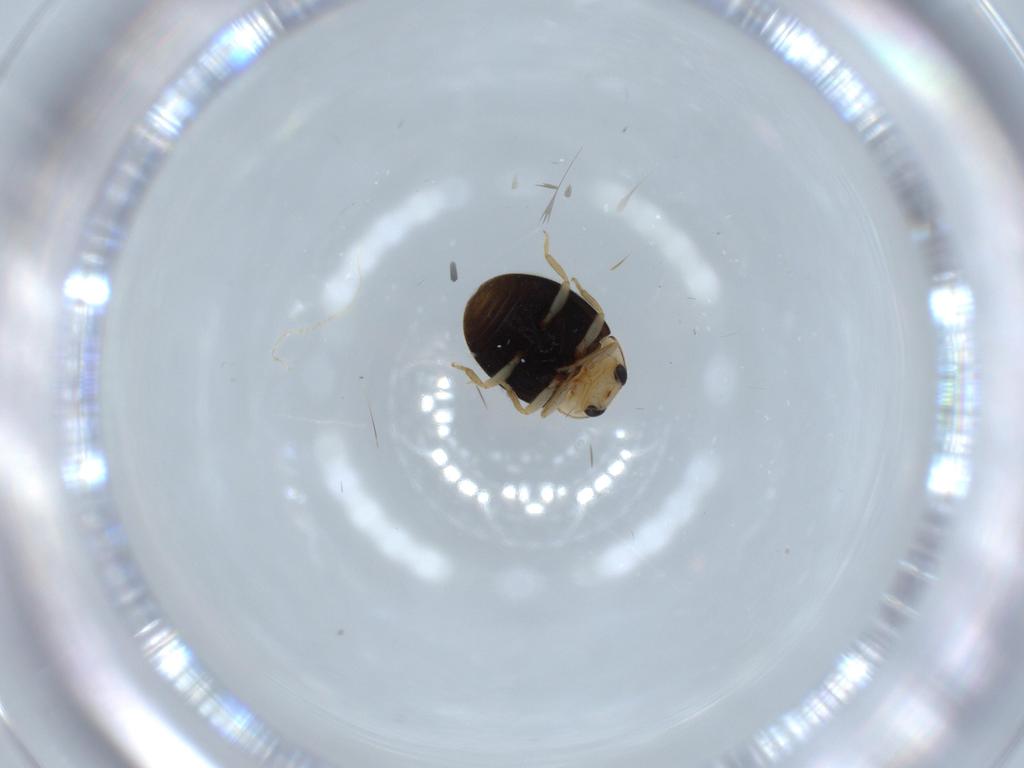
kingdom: Animalia
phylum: Arthropoda
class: Insecta
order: Coleoptera
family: Coccinellidae
